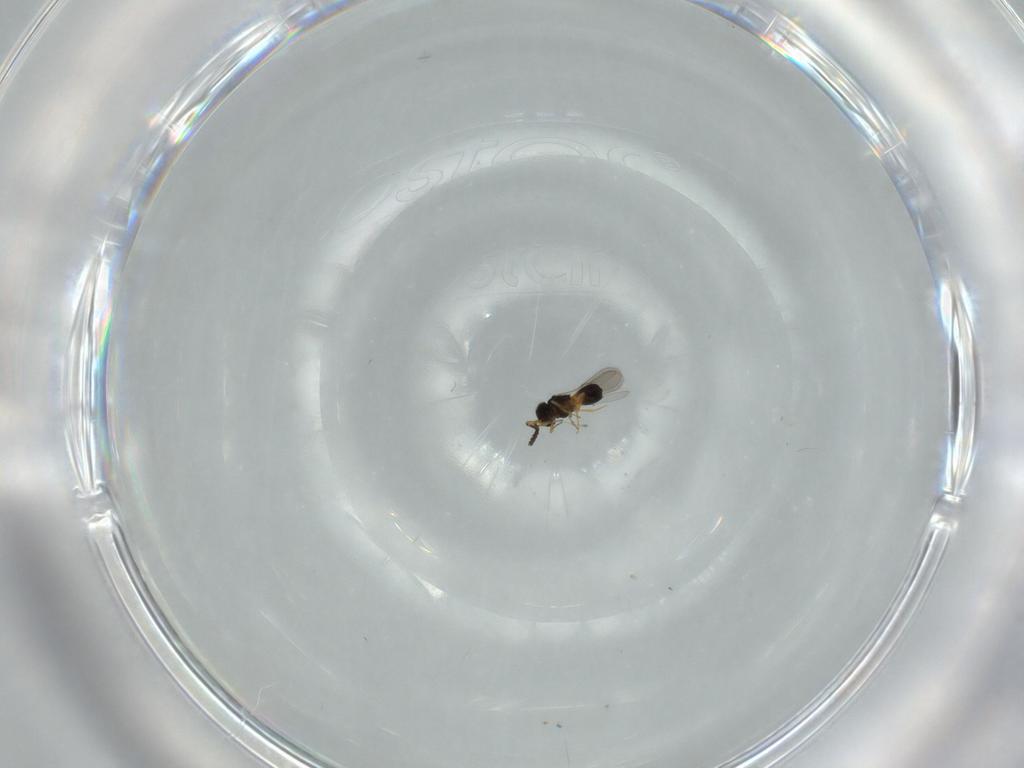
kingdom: Animalia
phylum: Arthropoda
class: Insecta
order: Hymenoptera
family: Scelionidae
